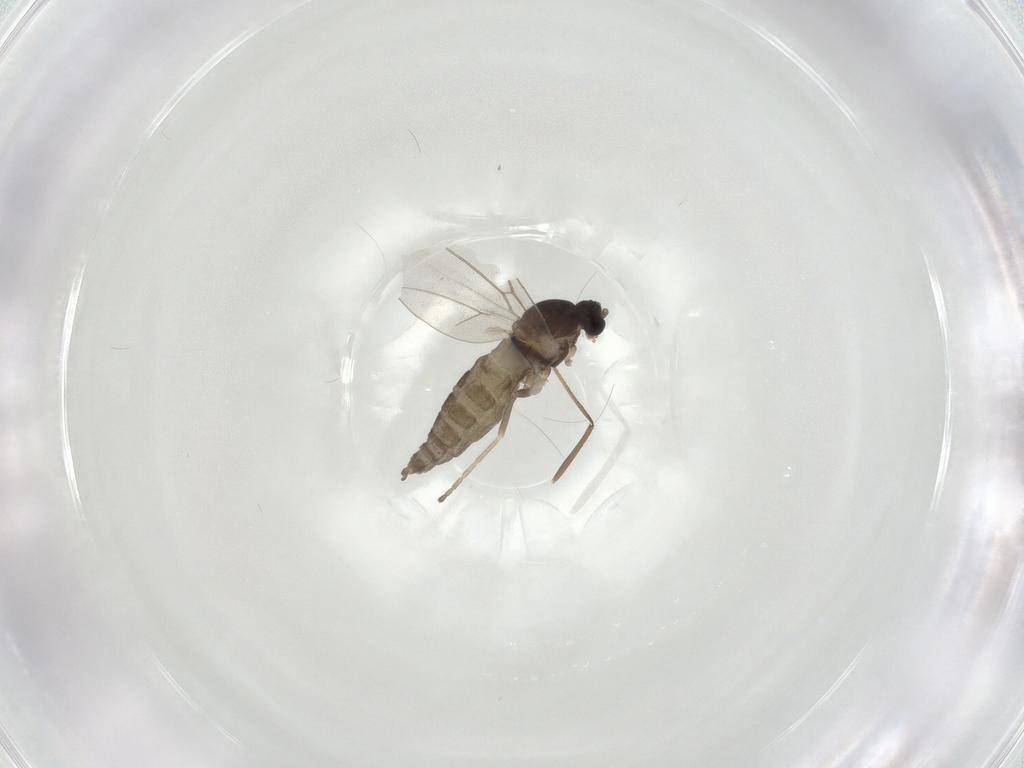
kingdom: Animalia
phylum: Arthropoda
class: Insecta
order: Diptera
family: Cecidomyiidae
